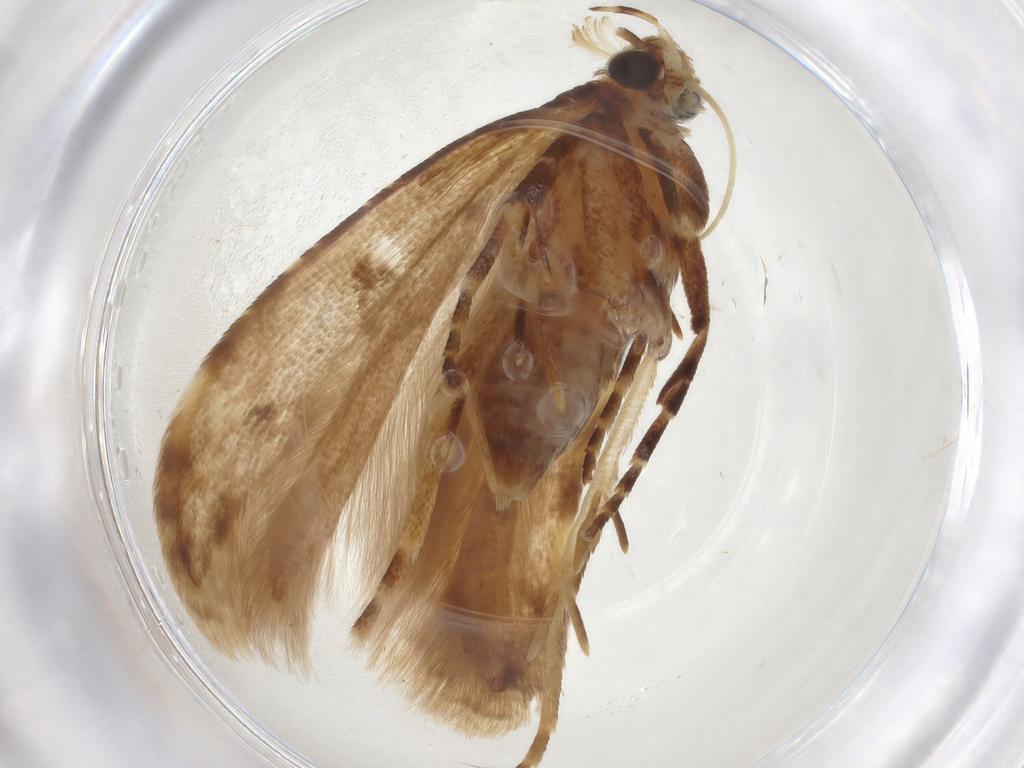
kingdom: Animalia
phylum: Arthropoda
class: Insecta
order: Lepidoptera
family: Gelechiidae
